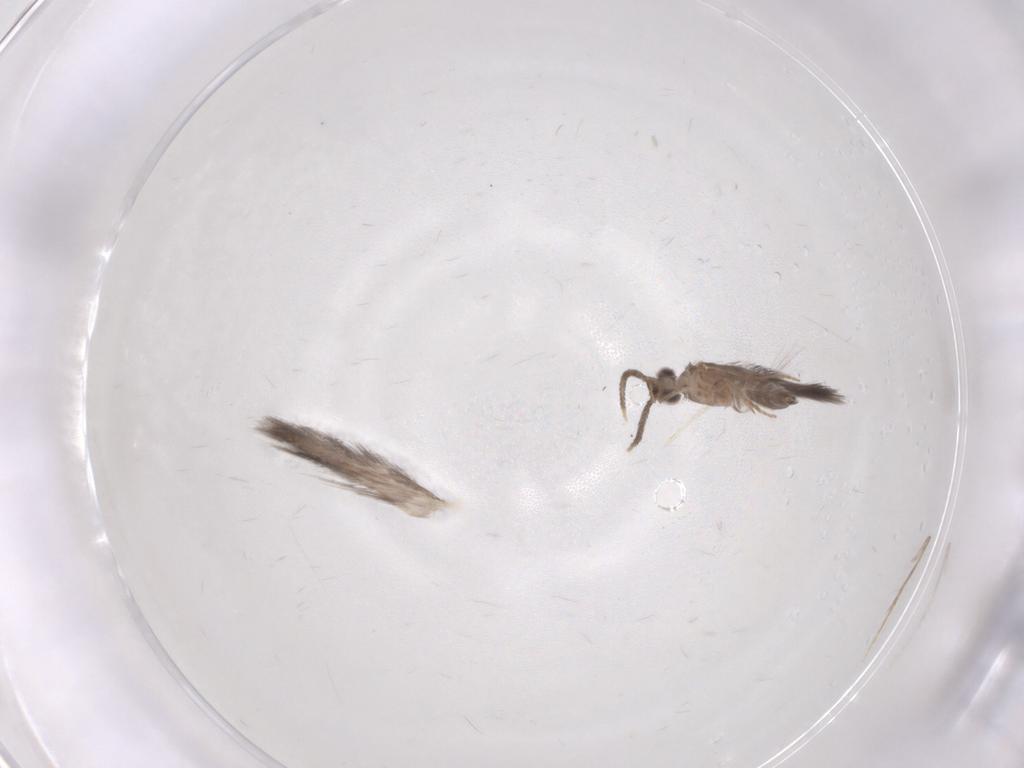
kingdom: Animalia
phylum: Arthropoda
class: Insecta
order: Trichoptera
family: Hydroptilidae
